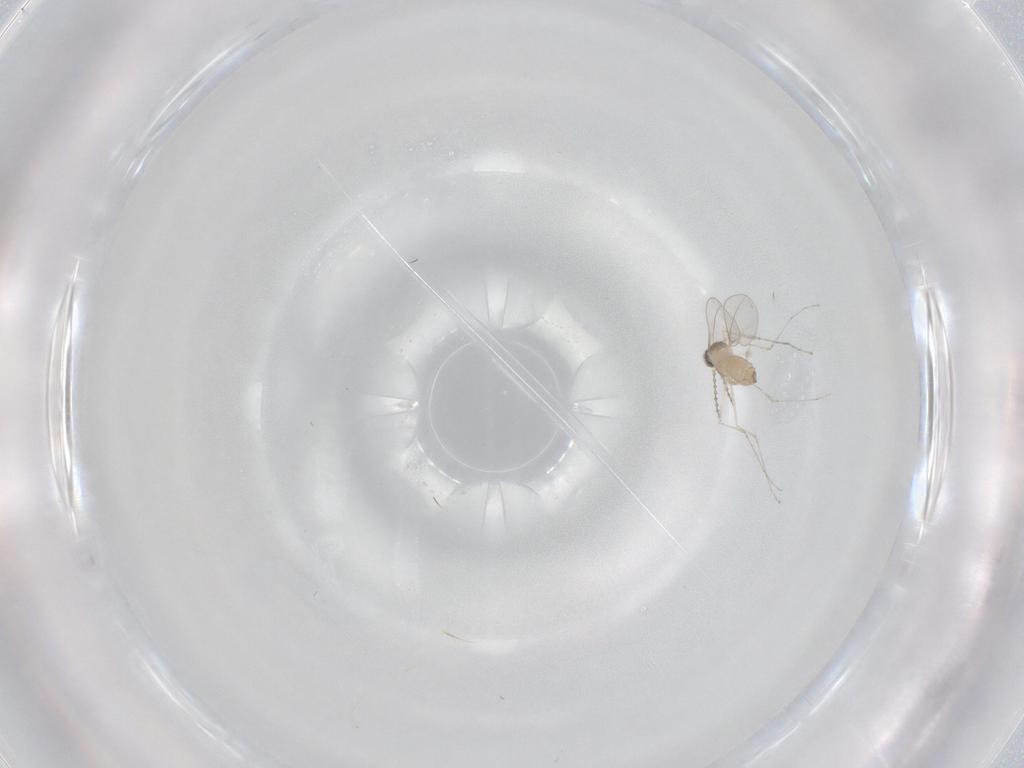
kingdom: Animalia
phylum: Arthropoda
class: Insecta
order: Diptera
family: Cecidomyiidae
